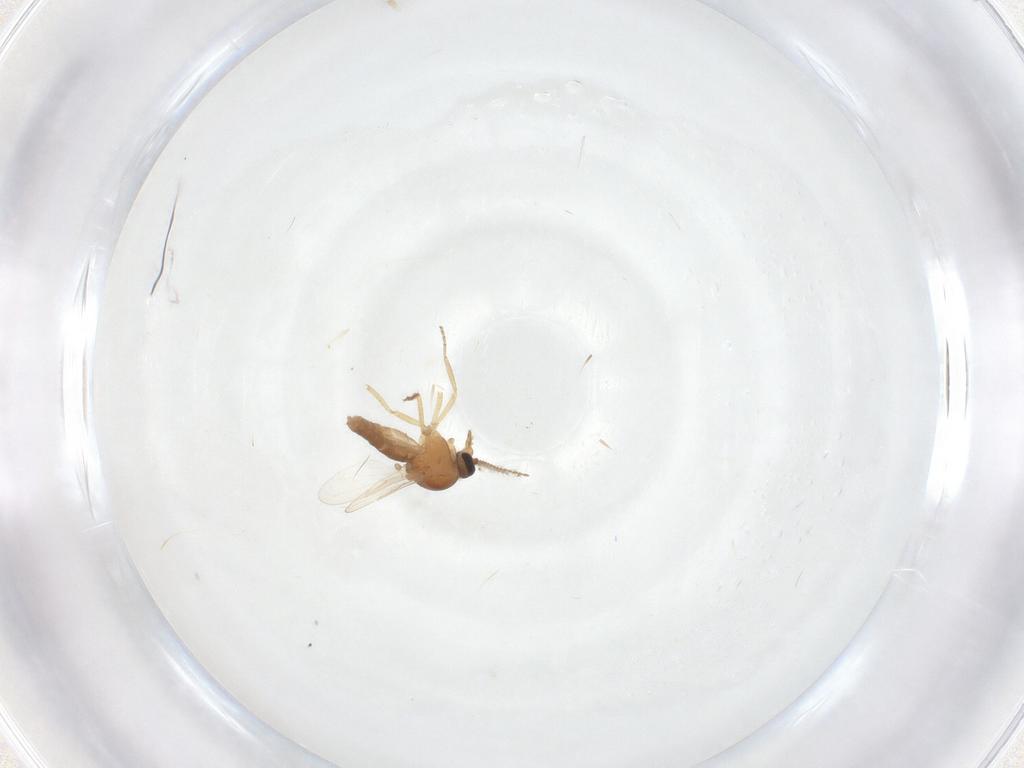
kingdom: Animalia
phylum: Arthropoda
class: Insecta
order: Diptera
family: Ceratopogonidae
